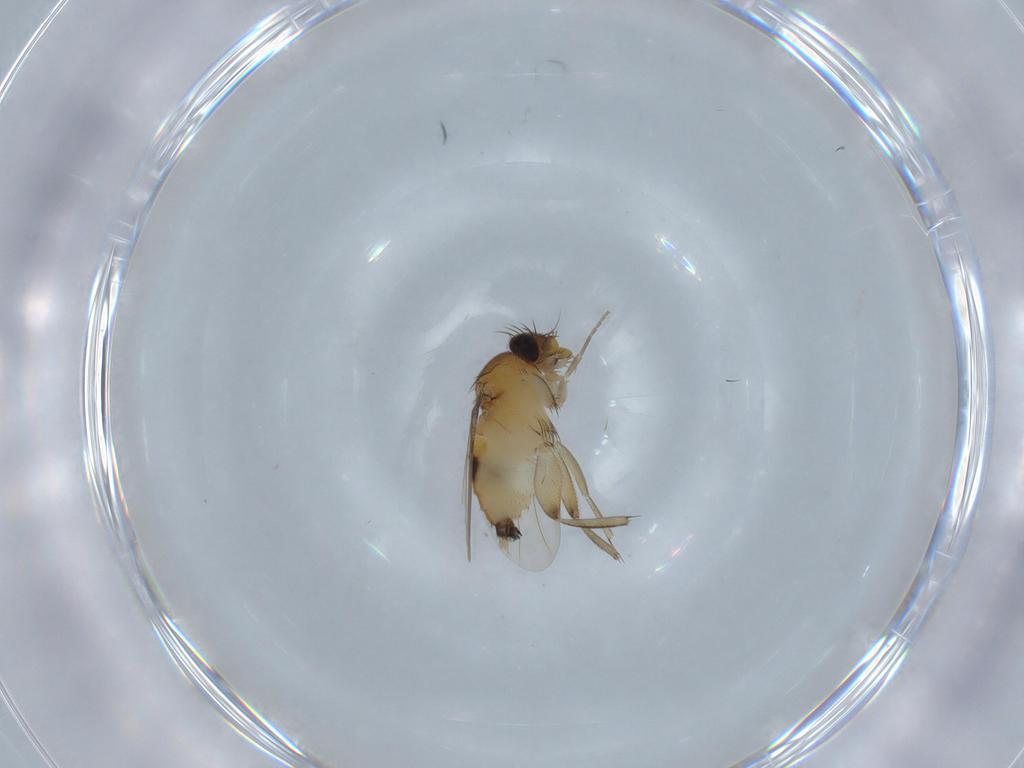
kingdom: Animalia
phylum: Arthropoda
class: Insecta
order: Diptera
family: Phoridae
